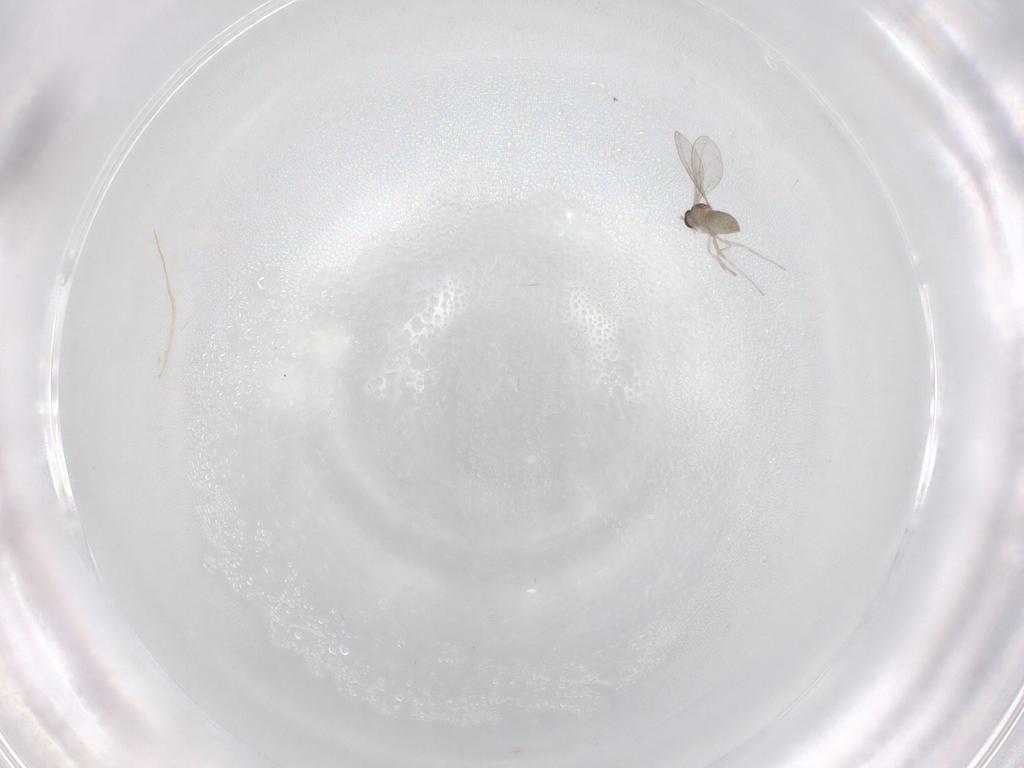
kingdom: Animalia
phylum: Arthropoda
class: Insecta
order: Diptera
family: Cecidomyiidae
